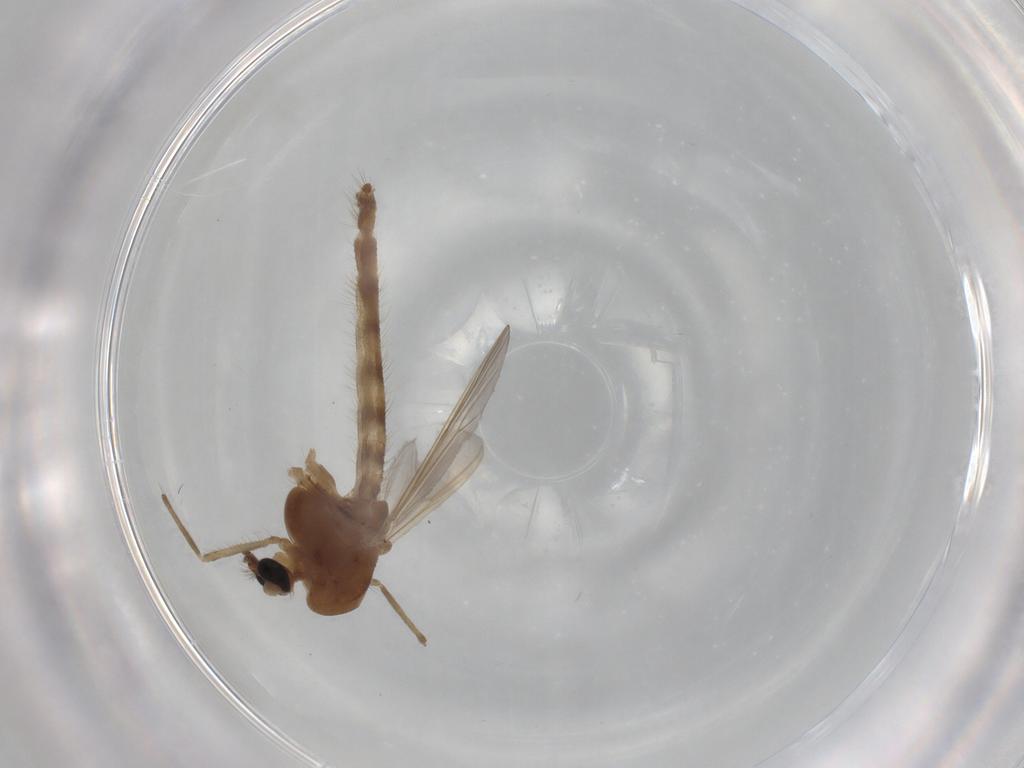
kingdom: Animalia
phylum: Arthropoda
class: Insecta
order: Diptera
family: Chironomidae
